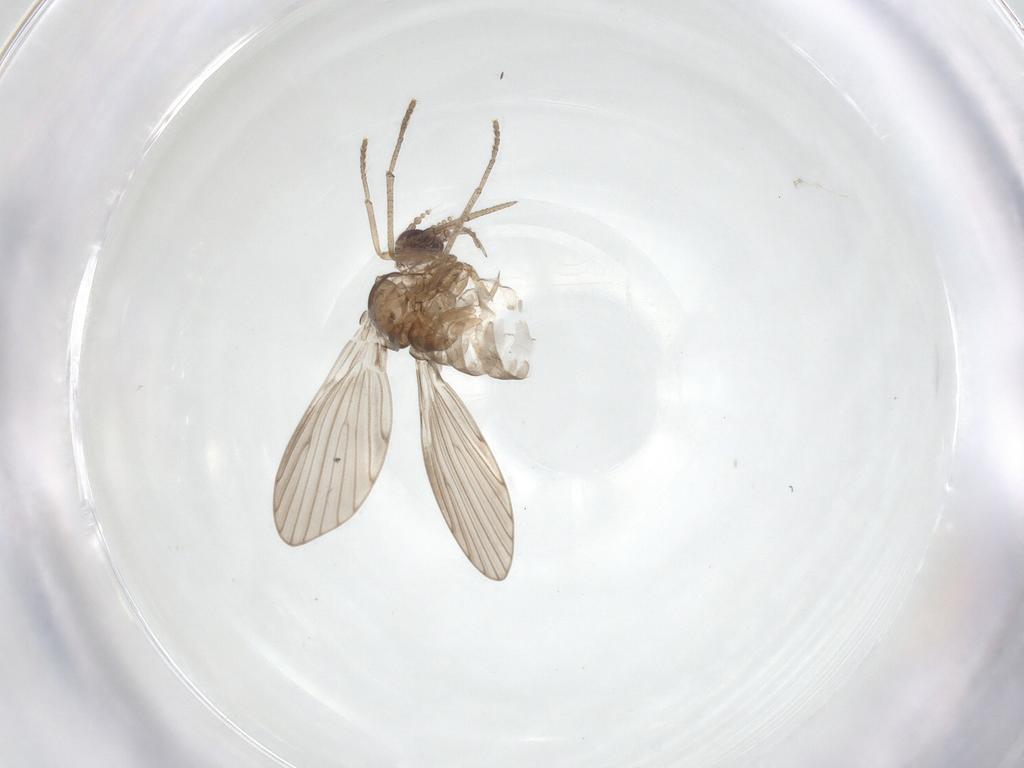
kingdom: Animalia
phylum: Arthropoda
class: Insecta
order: Diptera
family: Psychodidae
